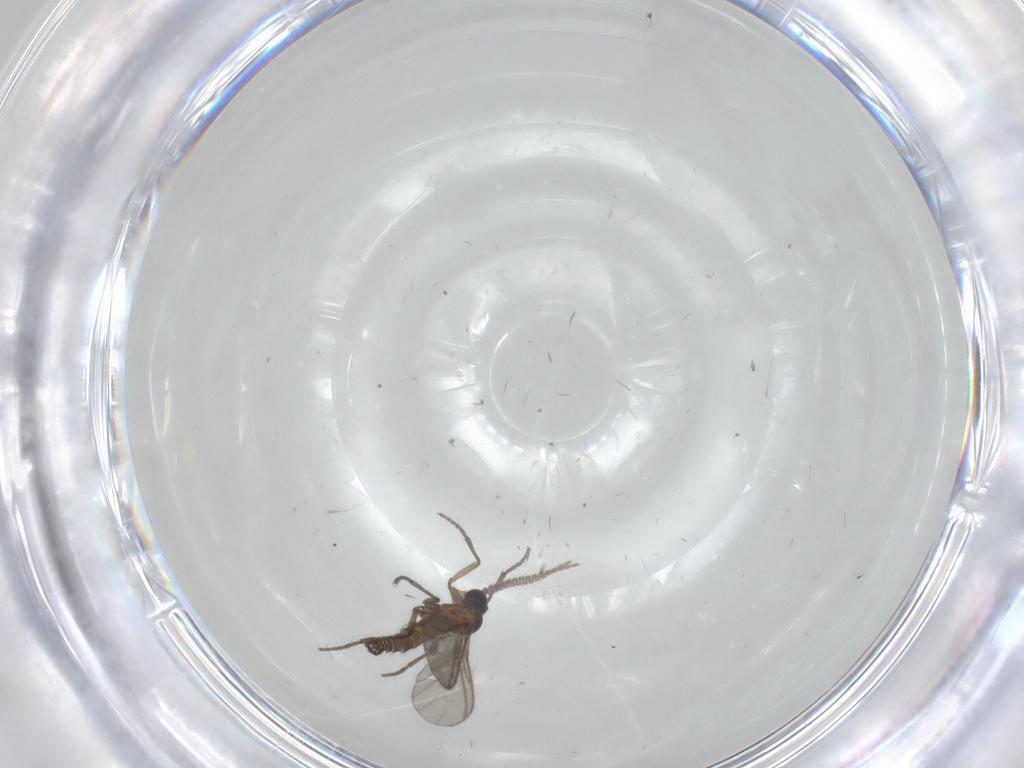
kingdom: Animalia
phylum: Arthropoda
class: Insecta
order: Diptera
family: Sciaridae
